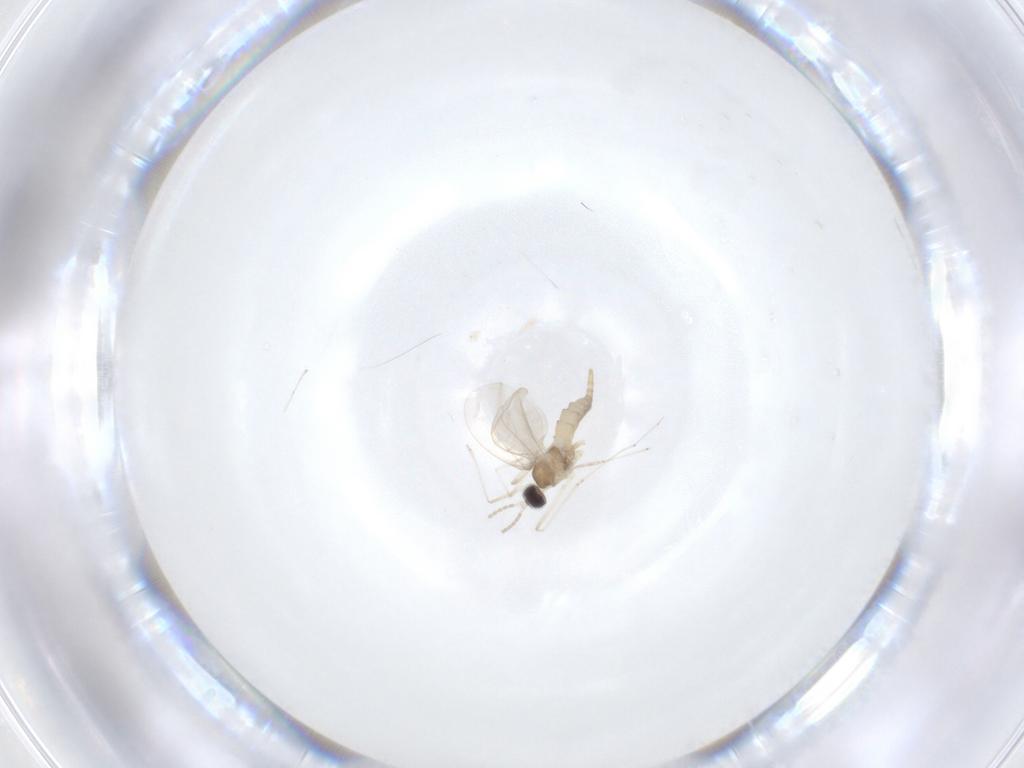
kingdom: Animalia
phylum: Arthropoda
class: Insecta
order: Diptera
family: Cecidomyiidae
